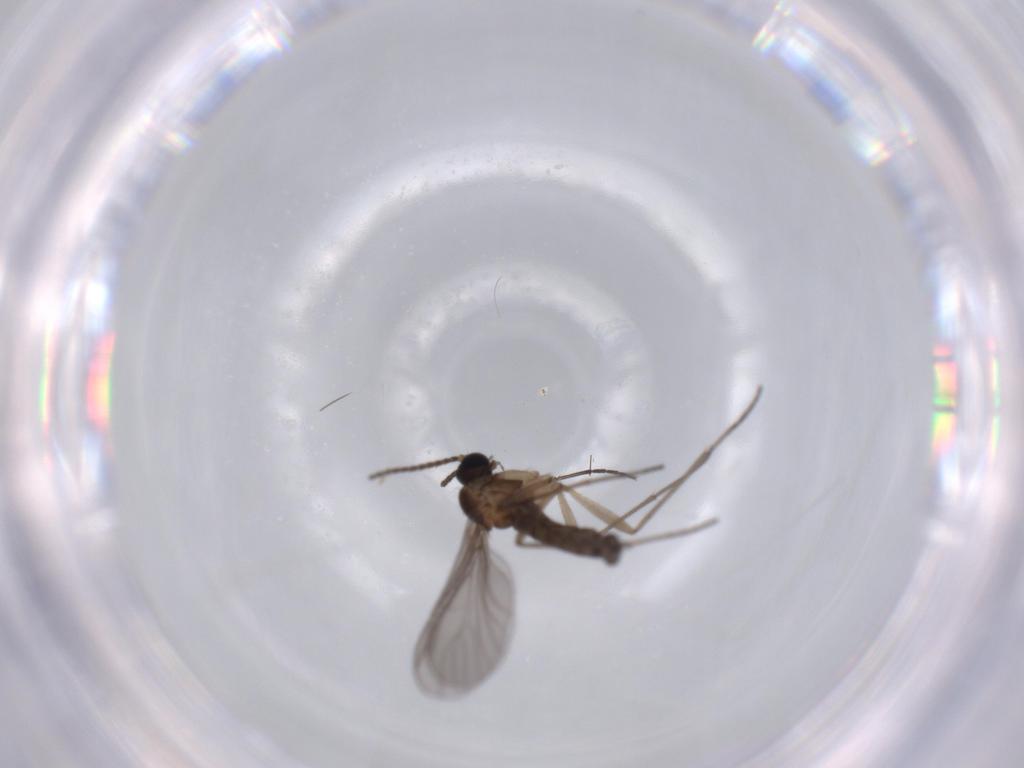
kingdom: Animalia
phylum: Arthropoda
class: Insecta
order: Diptera
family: Sciaridae
